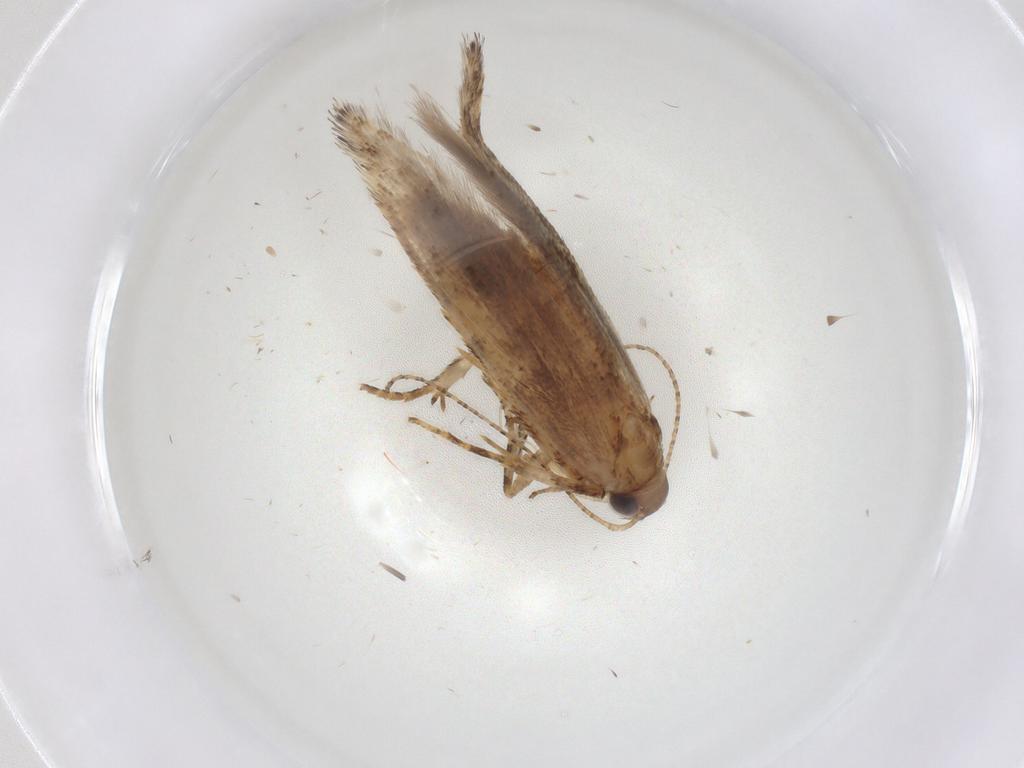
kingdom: Animalia
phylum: Arthropoda
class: Insecta
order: Lepidoptera
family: Gelechiidae
